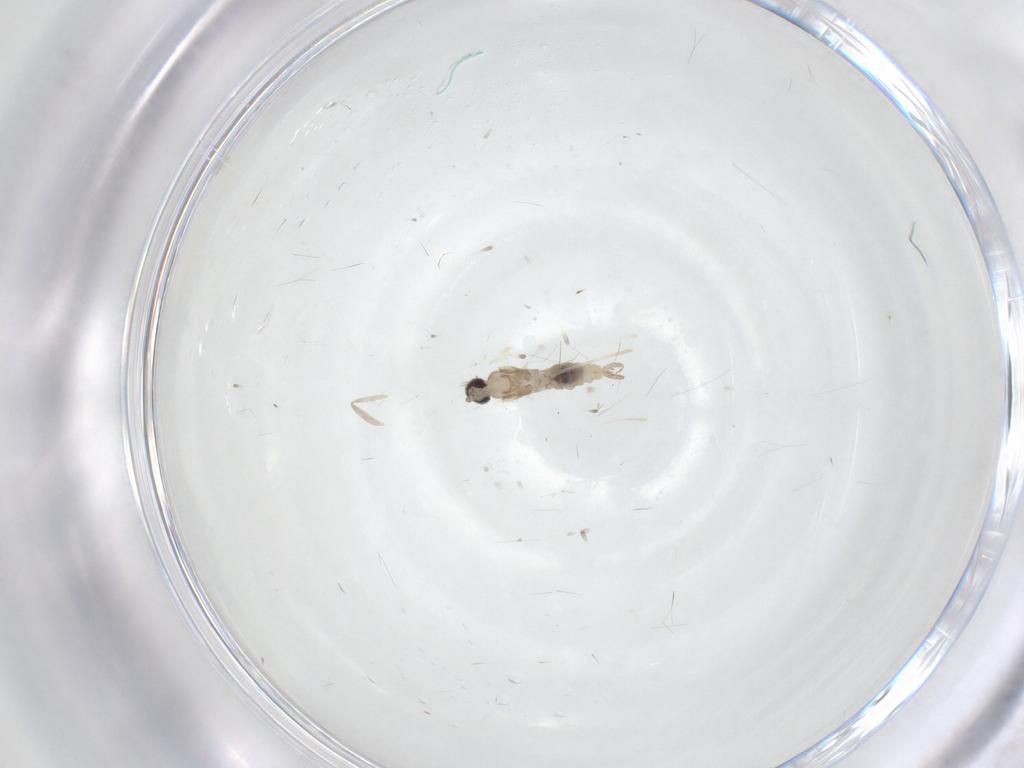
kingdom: Animalia
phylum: Arthropoda
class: Insecta
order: Diptera
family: Cecidomyiidae
